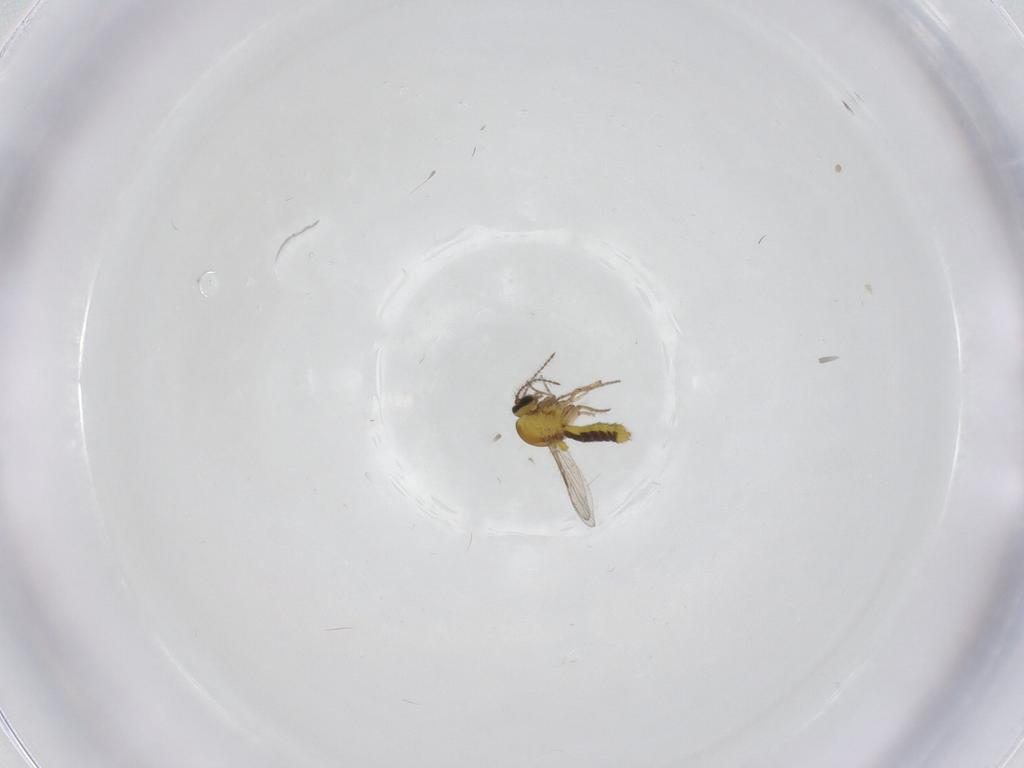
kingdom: Animalia
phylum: Arthropoda
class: Insecta
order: Diptera
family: Ceratopogonidae
